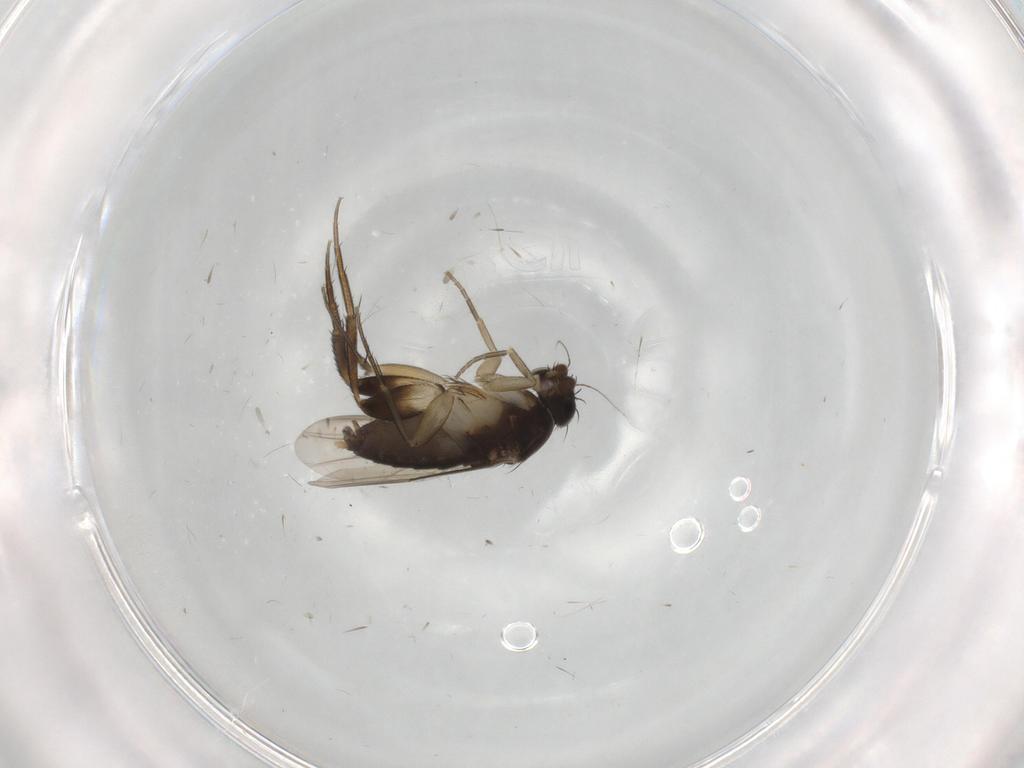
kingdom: Animalia
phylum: Arthropoda
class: Insecta
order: Diptera
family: Phoridae
